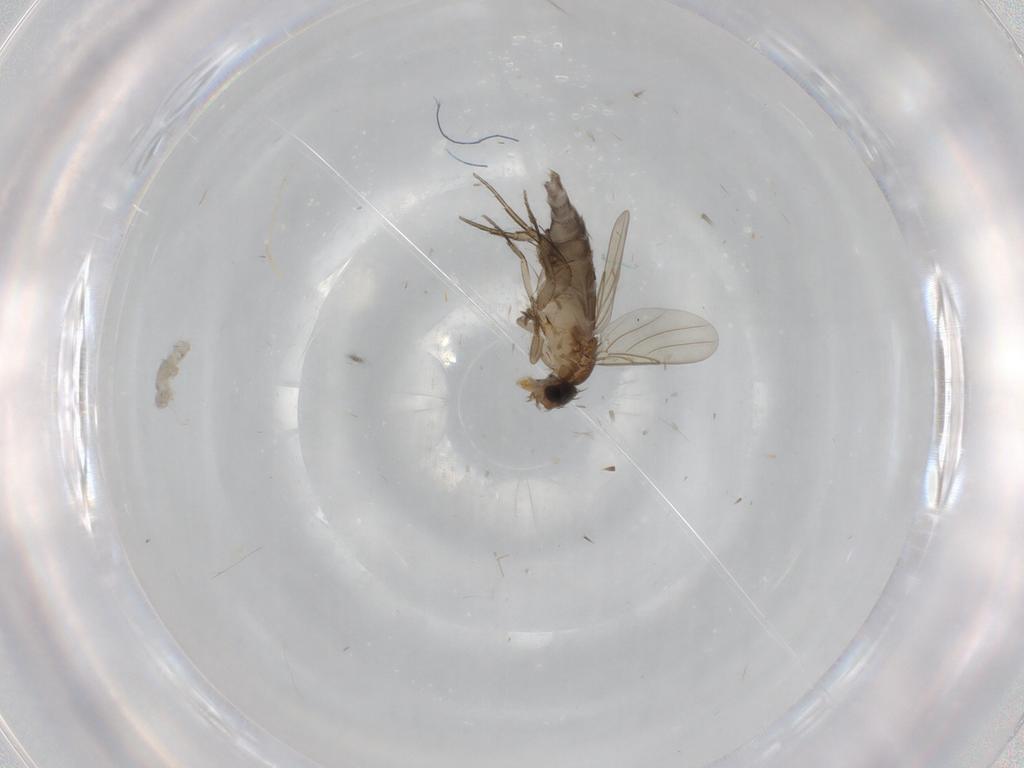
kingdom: Animalia
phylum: Arthropoda
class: Insecta
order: Diptera
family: Phoridae
